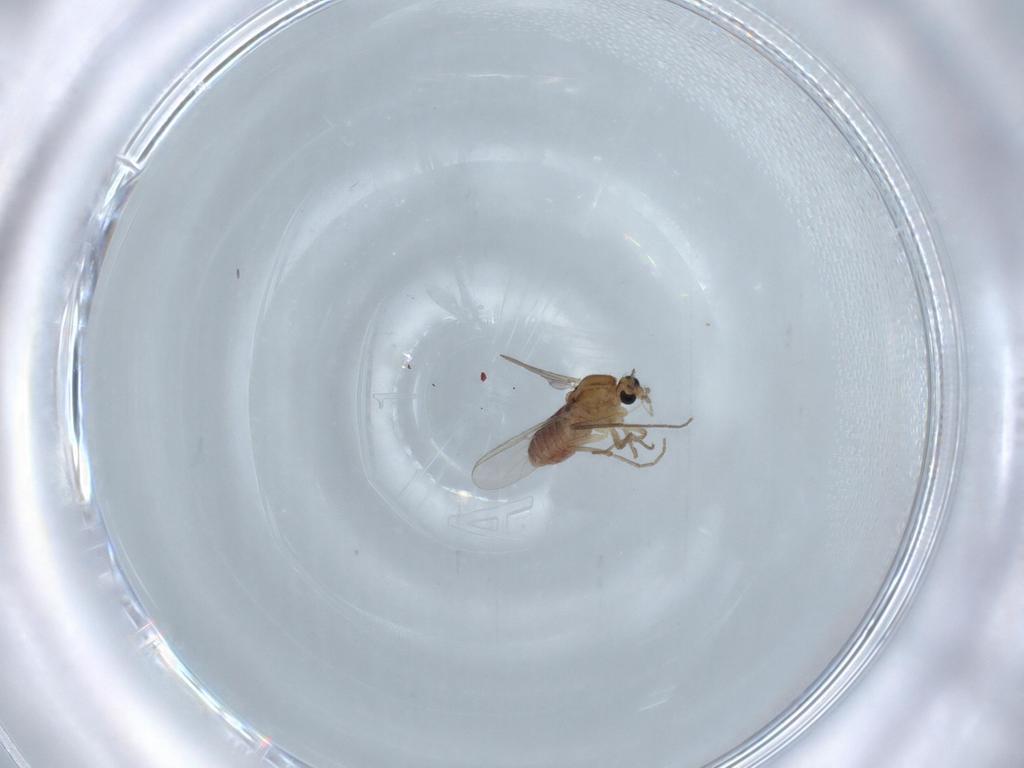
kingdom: Animalia
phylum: Arthropoda
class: Insecta
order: Diptera
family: Chironomidae
